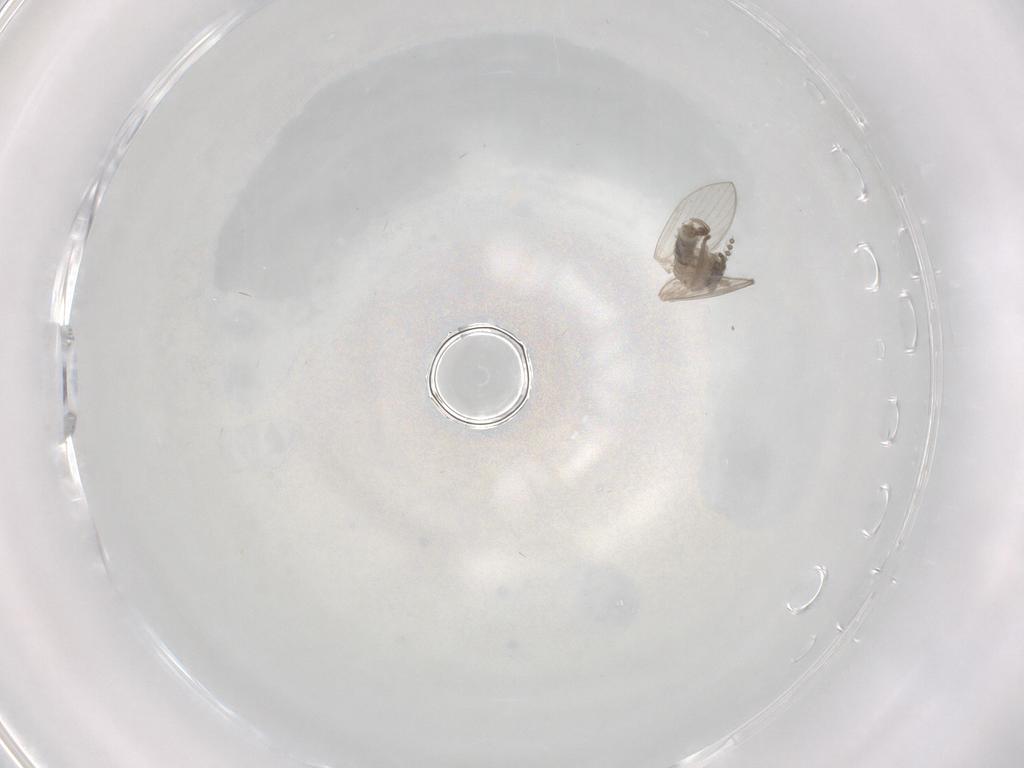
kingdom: Animalia
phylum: Arthropoda
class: Insecta
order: Diptera
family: Psychodidae
